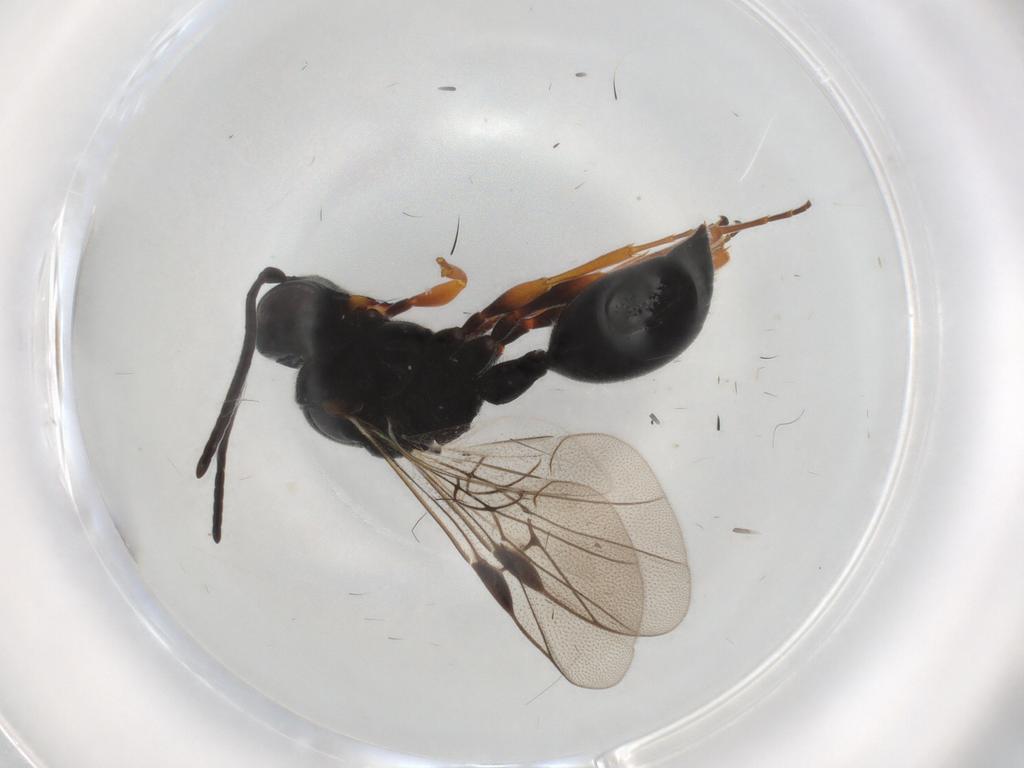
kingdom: Animalia
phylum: Arthropoda
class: Insecta
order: Hymenoptera
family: Heloridae
